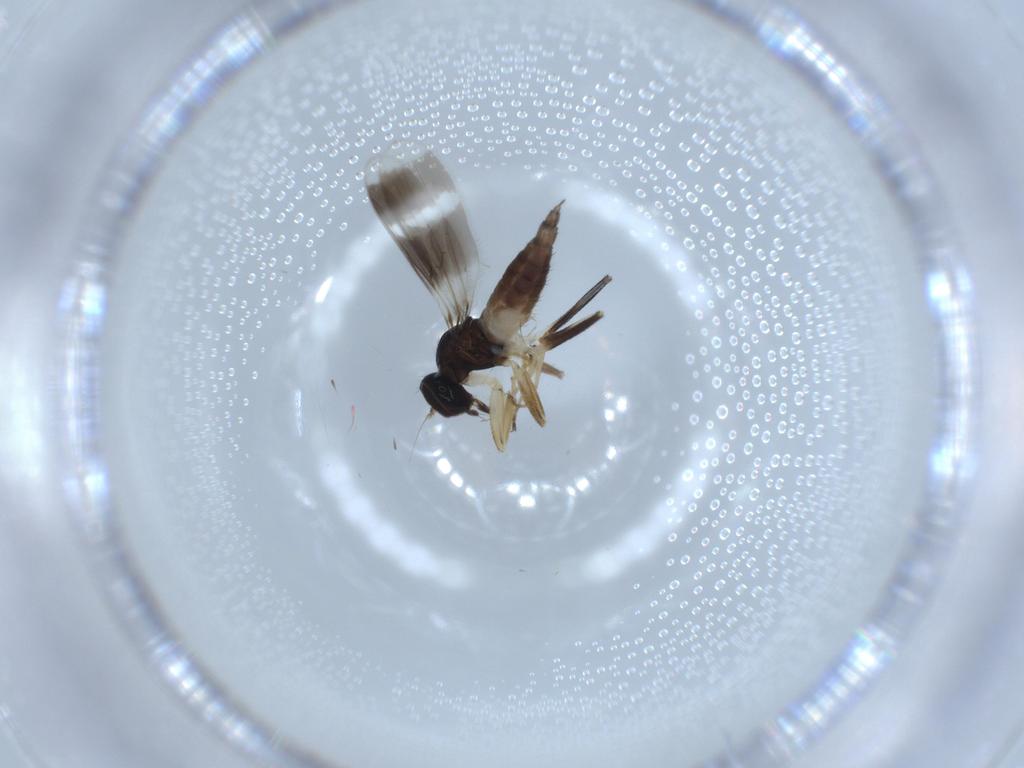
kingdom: Animalia
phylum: Arthropoda
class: Insecta
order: Diptera
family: Hybotidae
